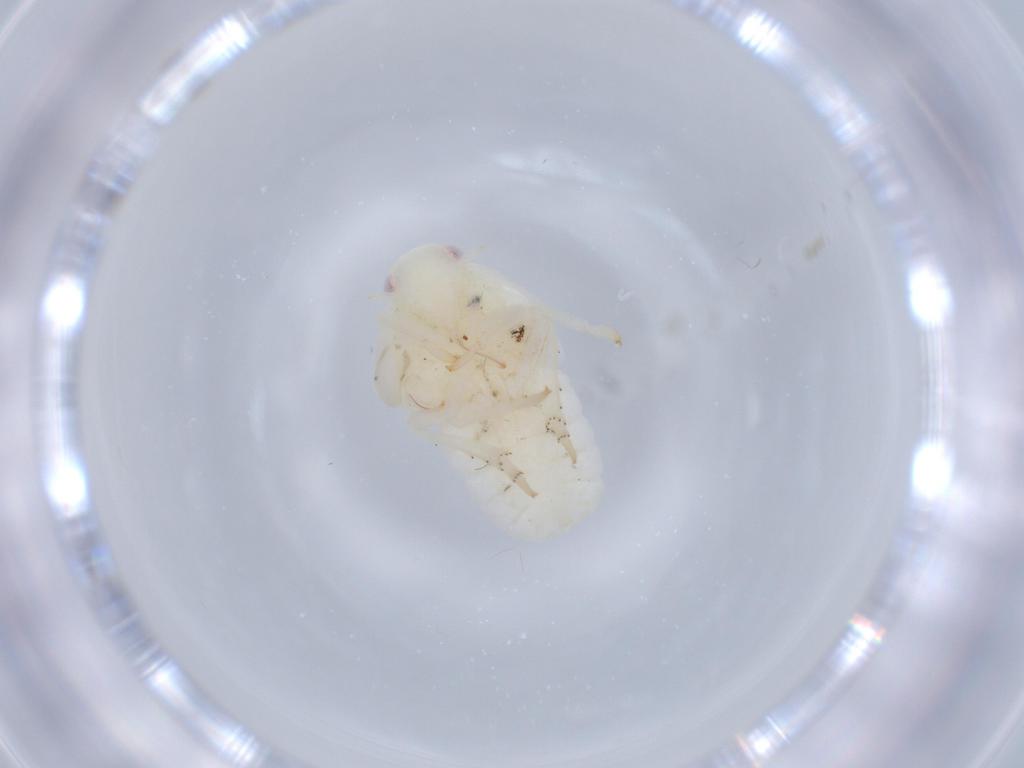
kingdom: Animalia
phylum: Arthropoda
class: Insecta
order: Hemiptera
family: Flatidae
